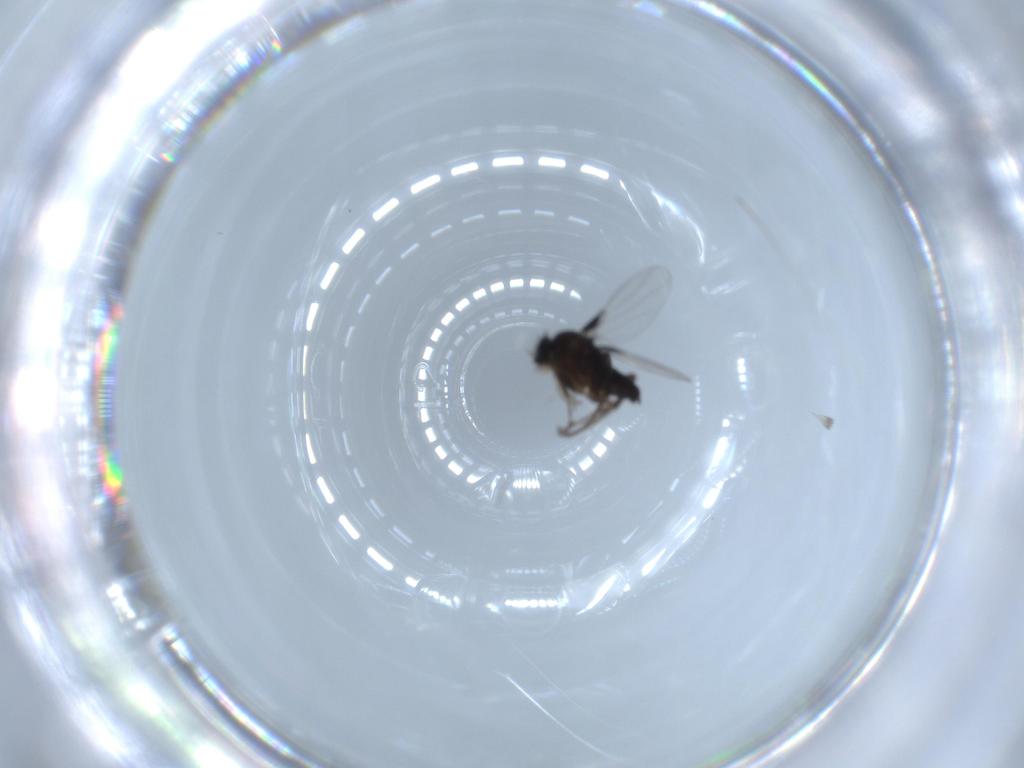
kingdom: Animalia
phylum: Arthropoda
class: Insecta
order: Diptera
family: Phoridae
